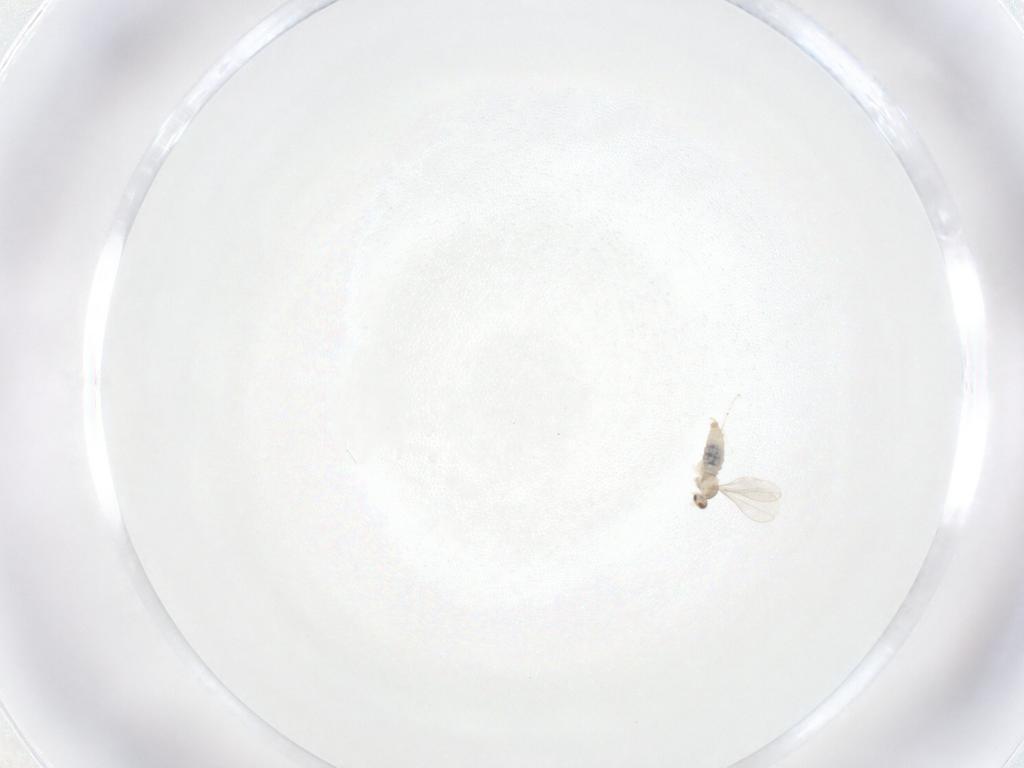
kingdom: Animalia
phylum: Arthropoda
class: Insecta
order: Diptera
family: Cecidomyiidae
